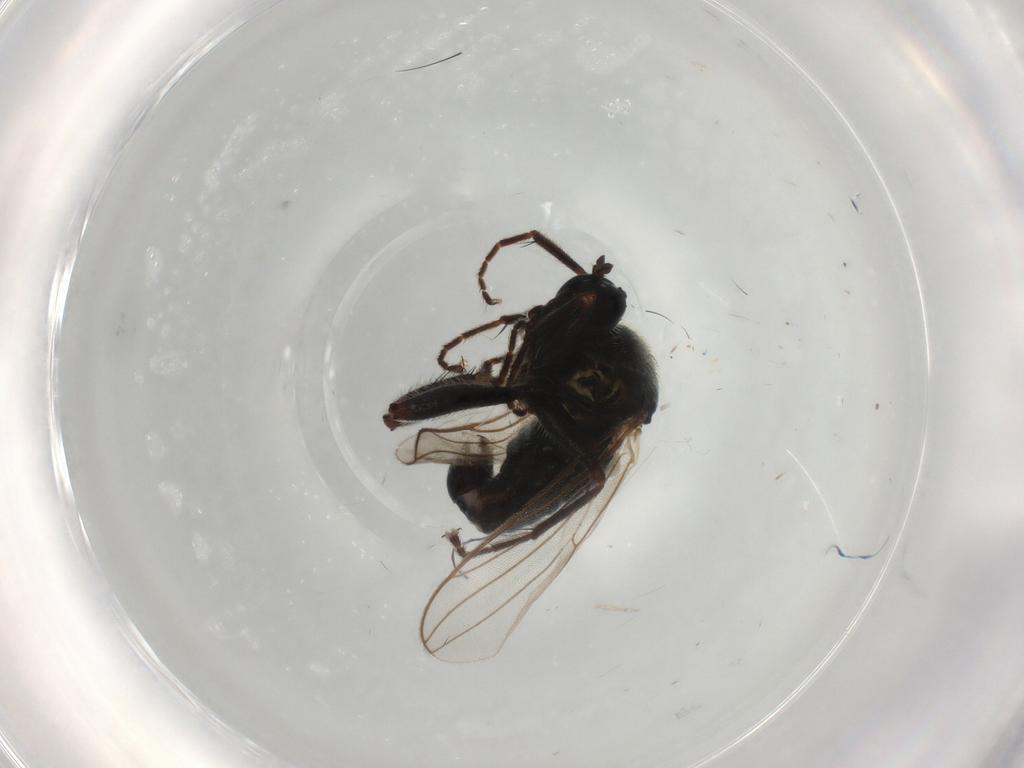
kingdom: Animalia
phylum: Arthropoda
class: Insecta
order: Diptera
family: Hybotidae
